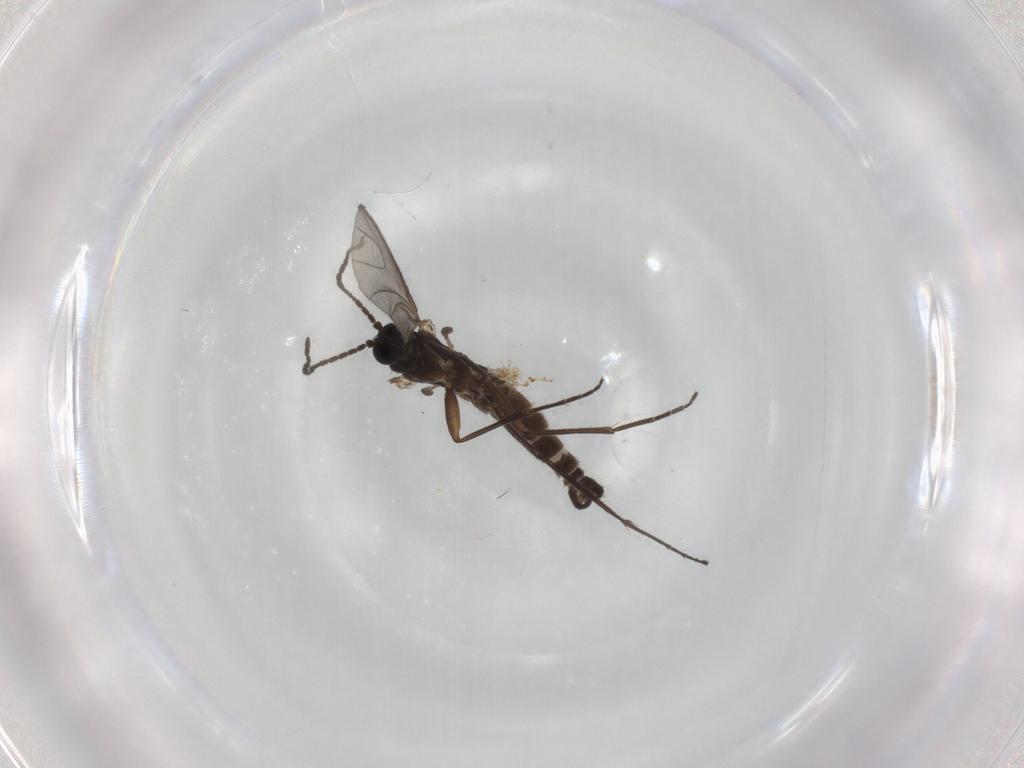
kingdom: Animalia
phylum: Arthropoda
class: Insecta
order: Diptera
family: Sciaridae
